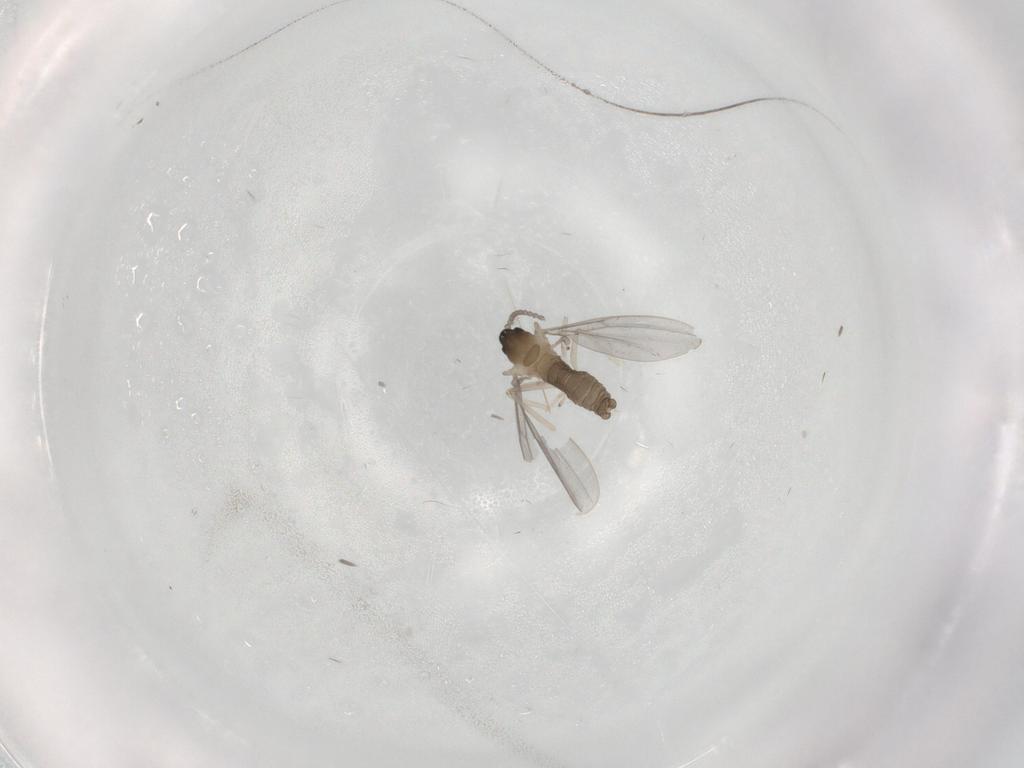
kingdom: Animalia
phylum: Arthropoda
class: Insecta
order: Diptera
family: Cecidomyiidae
